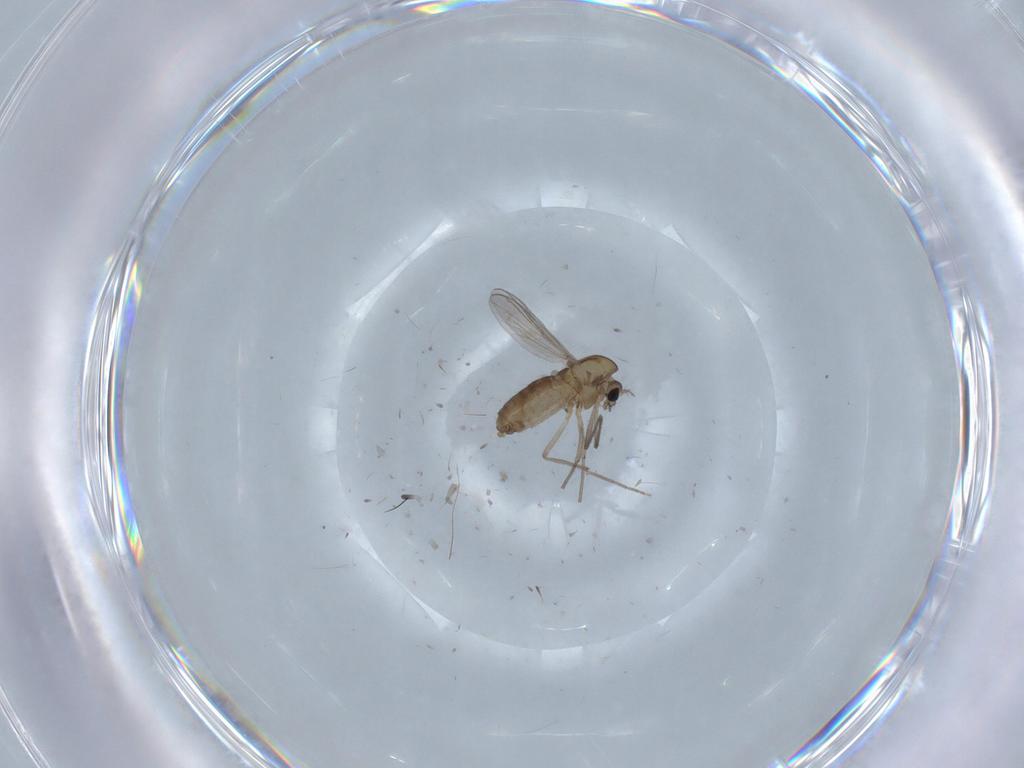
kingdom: Animalia
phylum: Arthropoda
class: Insecta
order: Diptera
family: Chironomidae
